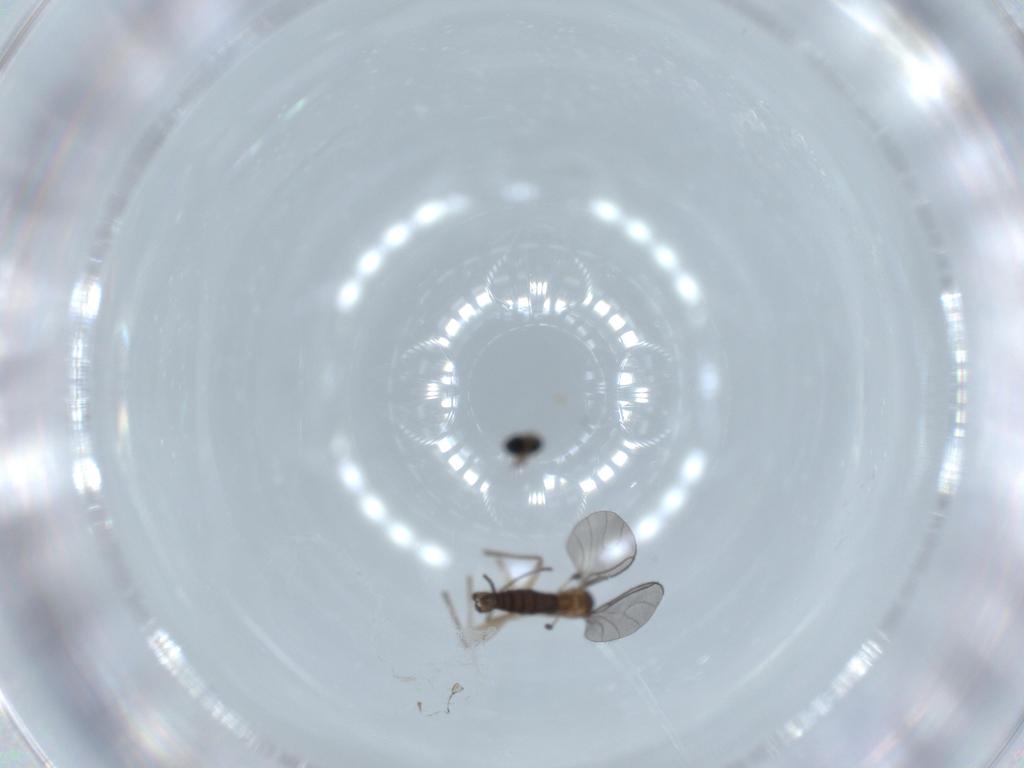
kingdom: Animalia
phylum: Arthropoda
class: Insecta
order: Diptera
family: Sciaridae
